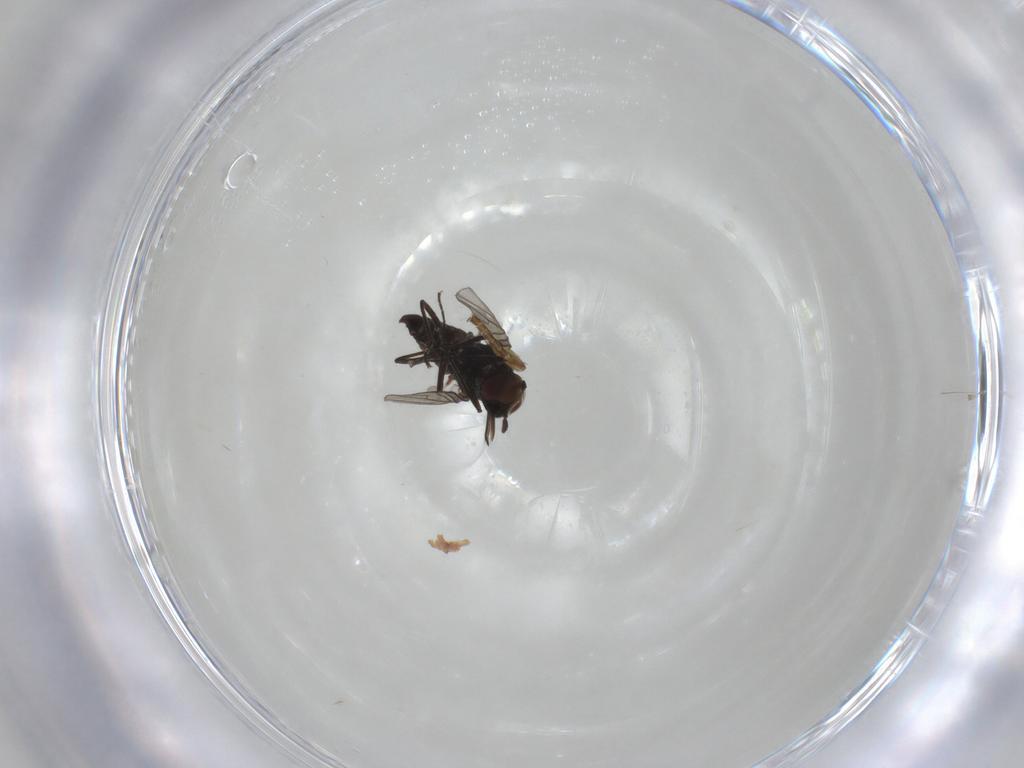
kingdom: Animalia
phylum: Arthropoda
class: Insecta
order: Diptera
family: Bombyliidae
